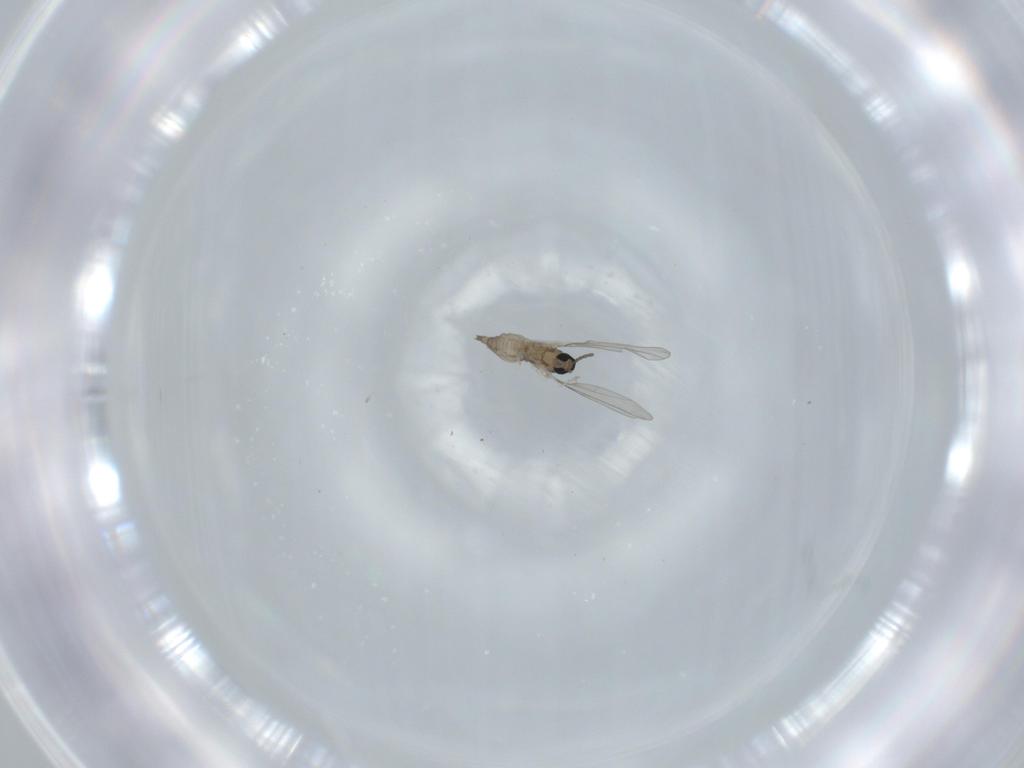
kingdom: Animalia
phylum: Arthropoda
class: Insecta
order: Diptera
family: Cecidomyiidae
